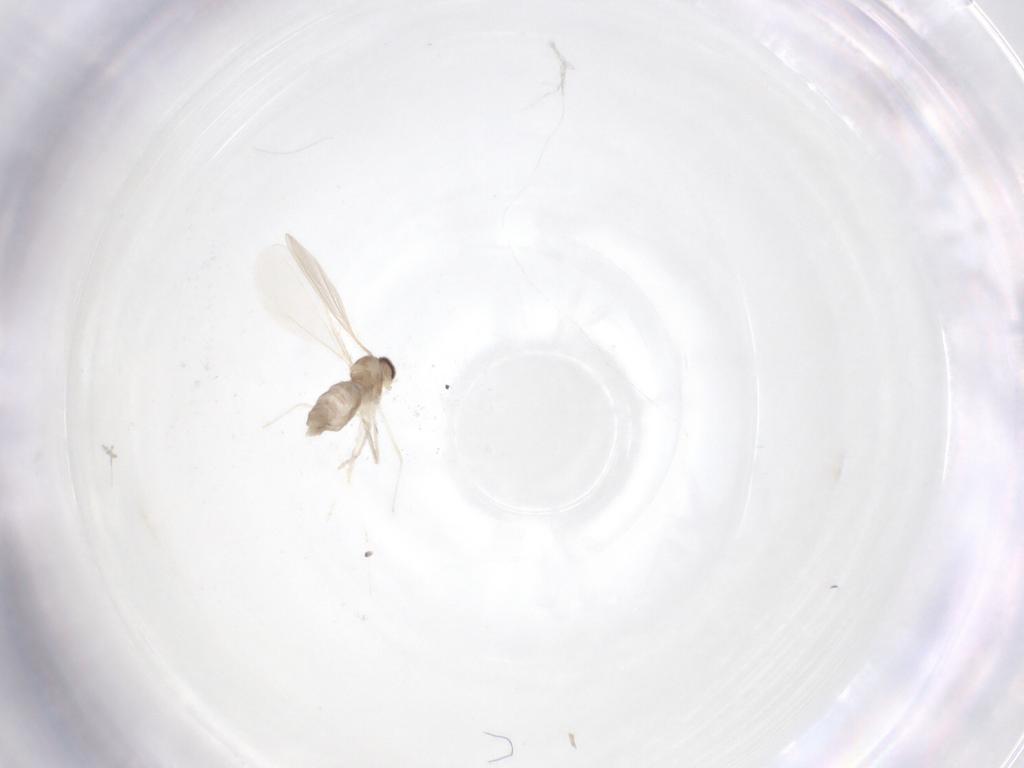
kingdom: Animalia
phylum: Arthropoda
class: Insecta
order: Diptera
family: Cecidomyiidae
